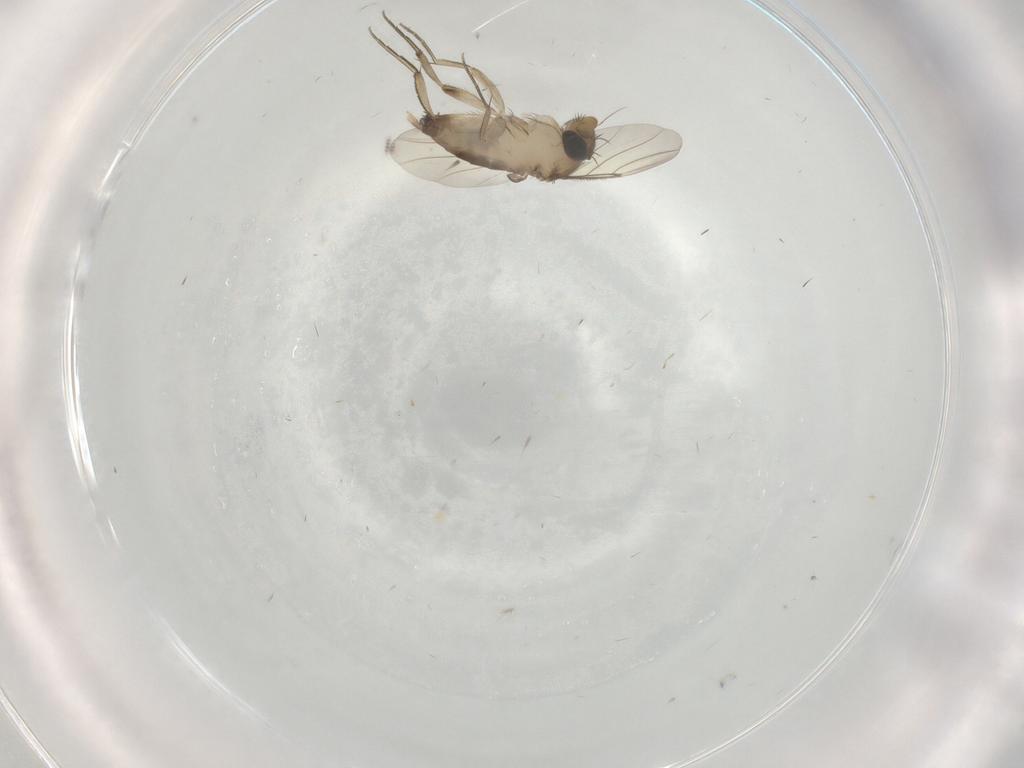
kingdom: Animalia
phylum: Arthropoda
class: Insecta
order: Diptera
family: Phoridae
